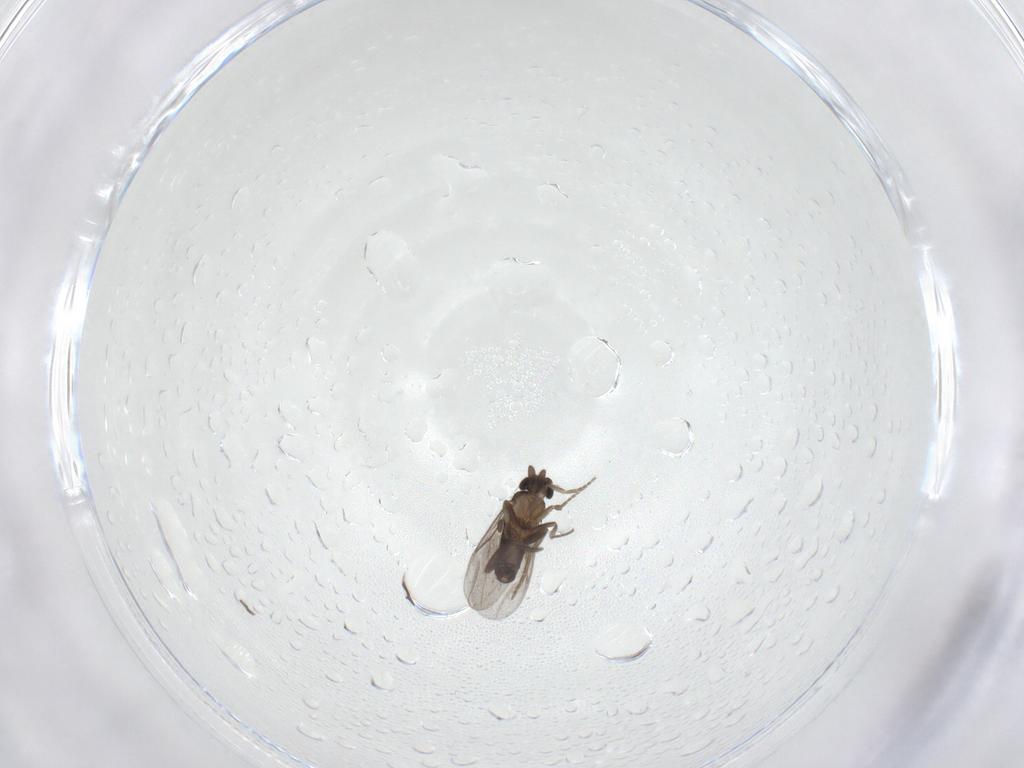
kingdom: Animalia
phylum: Arthropoda
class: Insecta
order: Diptera
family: Chironomidae
